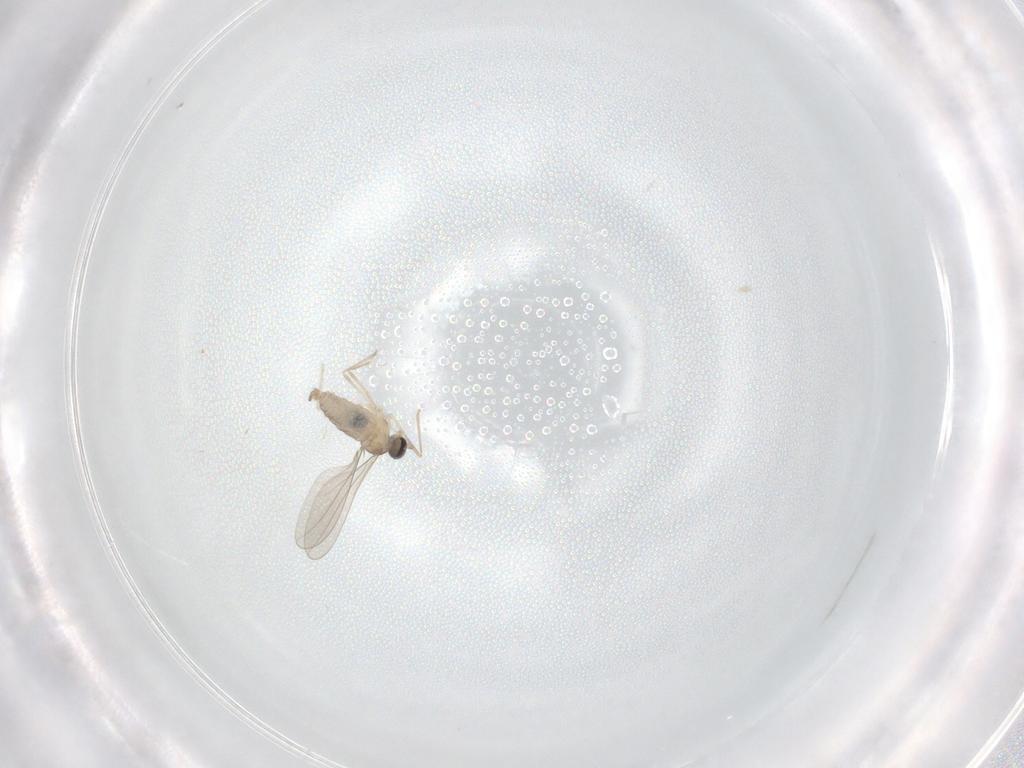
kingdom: Animalia
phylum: Arthropoda
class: Insecta
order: Diptera
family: Cecidomyiidae
